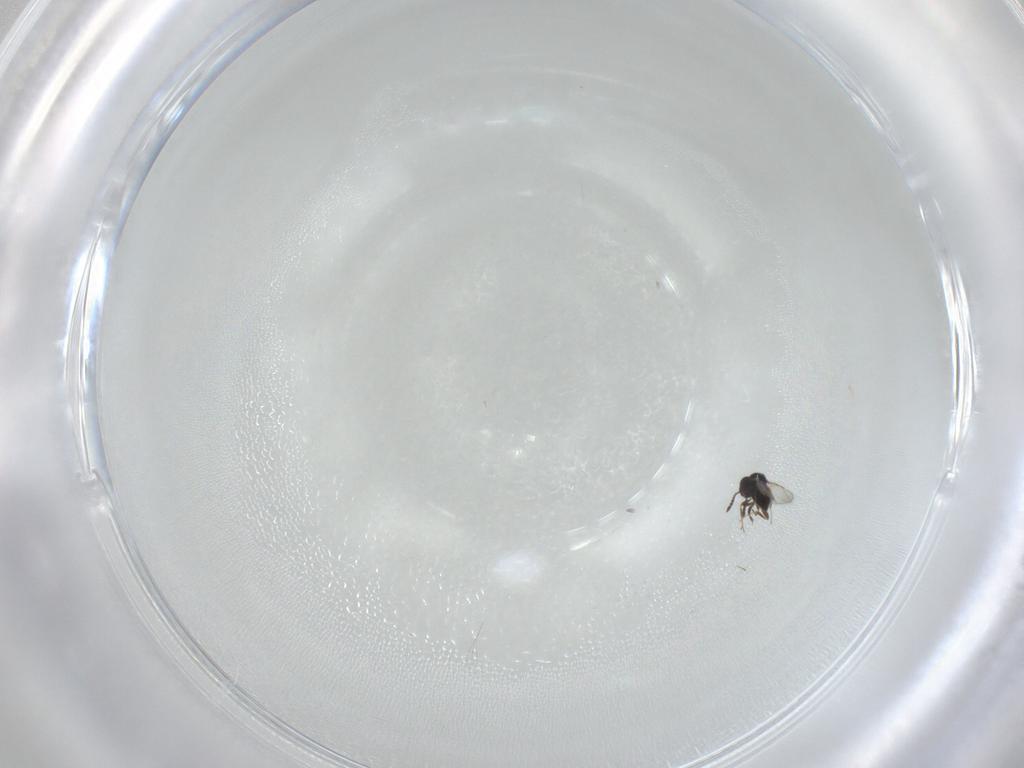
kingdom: Animalia
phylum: Arthropoda
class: Insecta
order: Hymenoptera
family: Ceraphronidae
